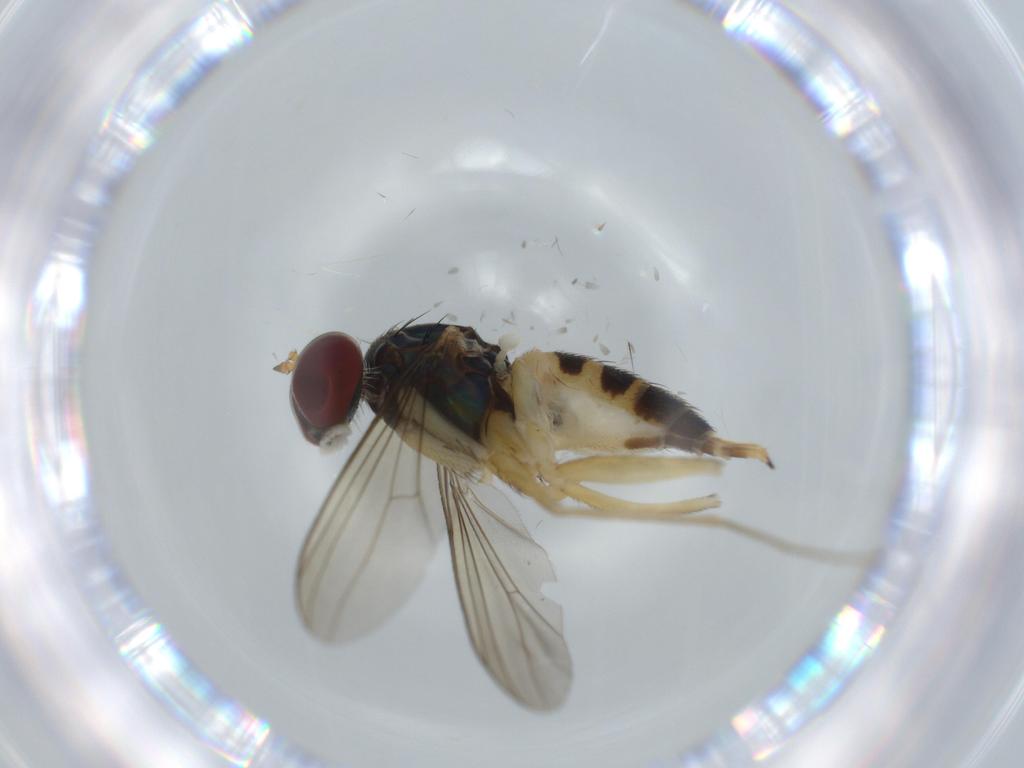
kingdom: Animalia
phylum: Arthropoda
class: Insecta
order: Diptera
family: Dolichopodidae
